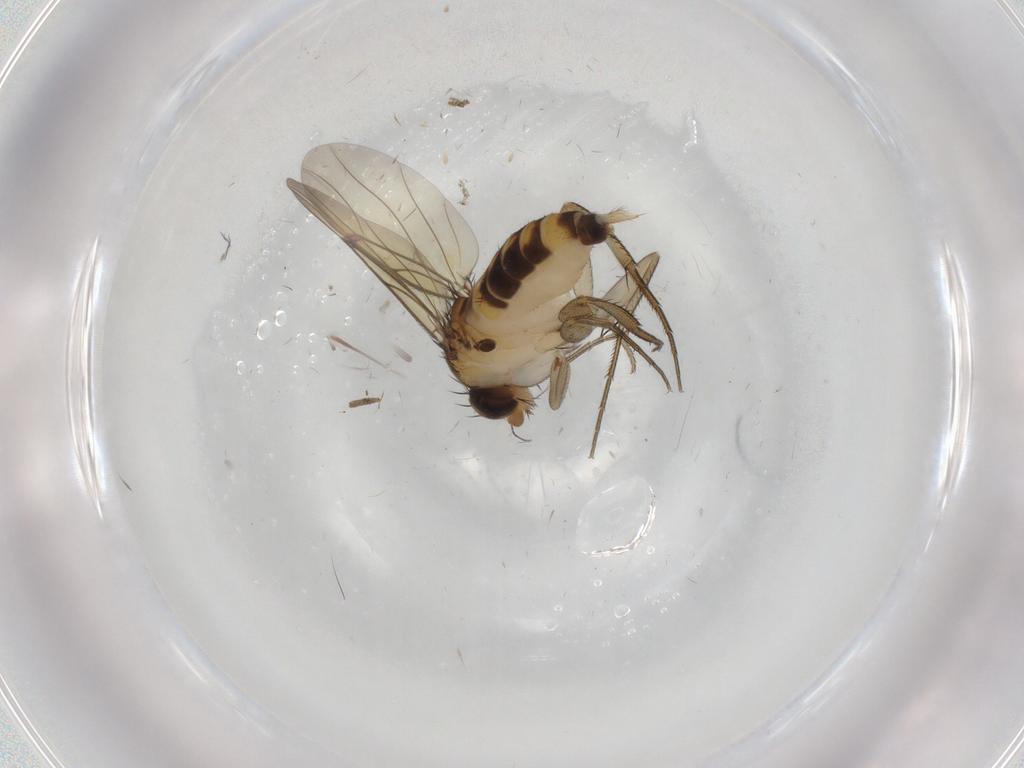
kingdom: Animalia
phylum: Arthropoda
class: Insecta
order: Diptera
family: Phoridae
